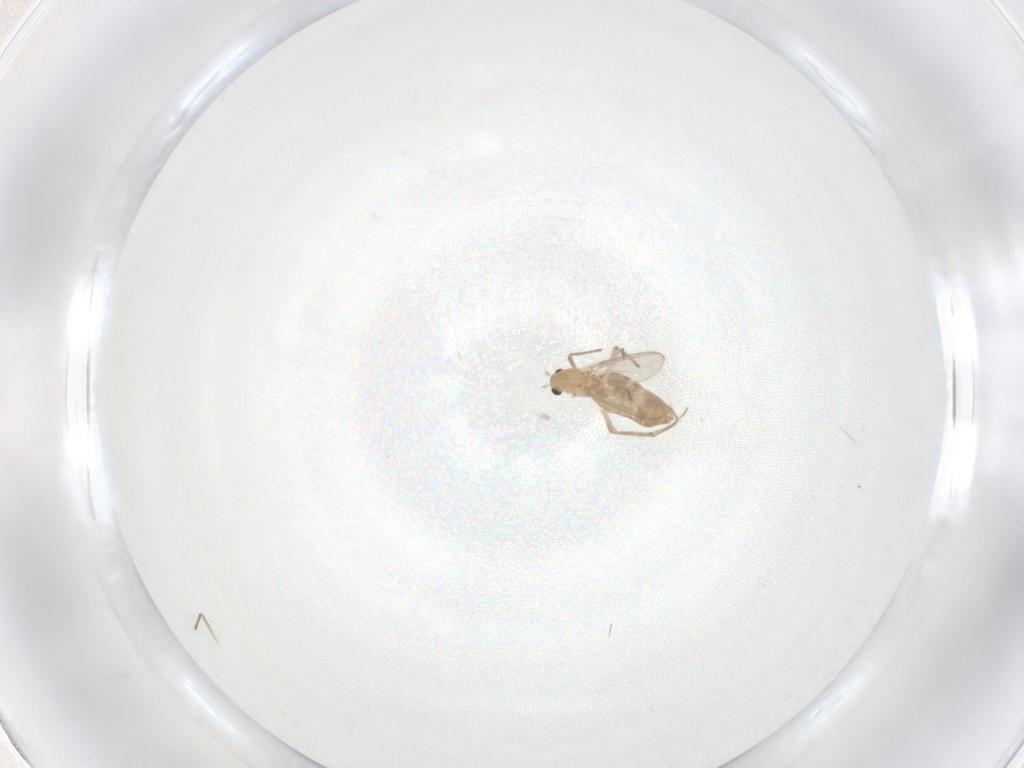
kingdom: Animalia
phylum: Arthropoda
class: Insecta
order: Diptera
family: Chironomidae
